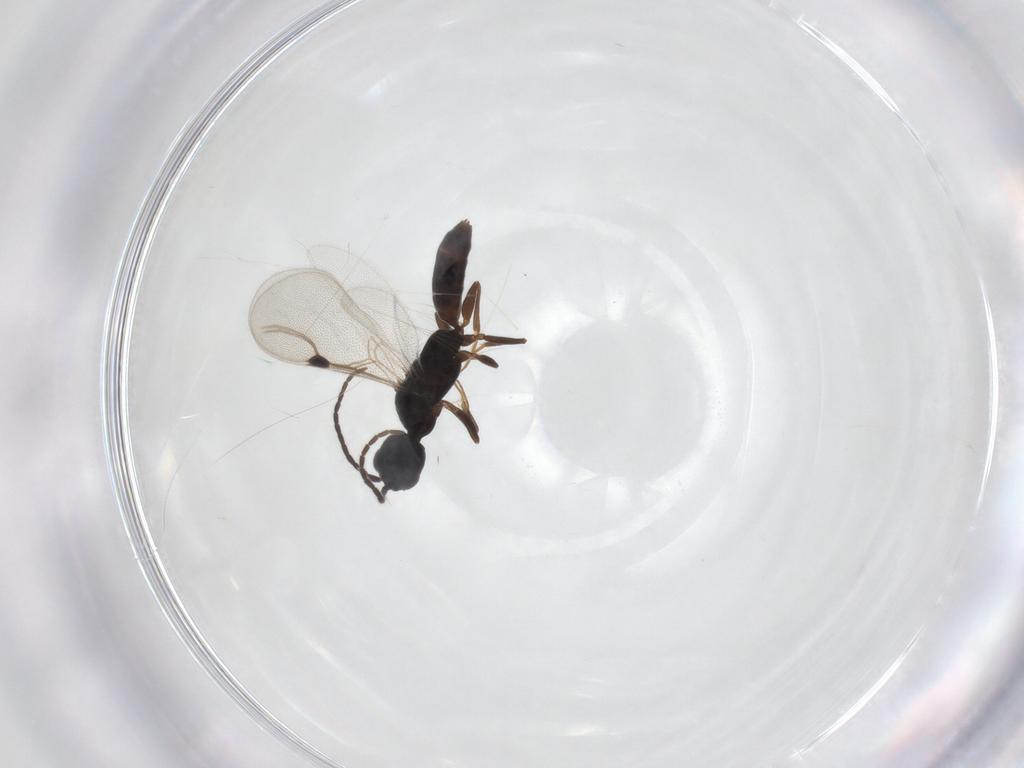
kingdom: Animalia
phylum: Arthropoda
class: Insecta
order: Hymenoptera
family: Bethylidae
